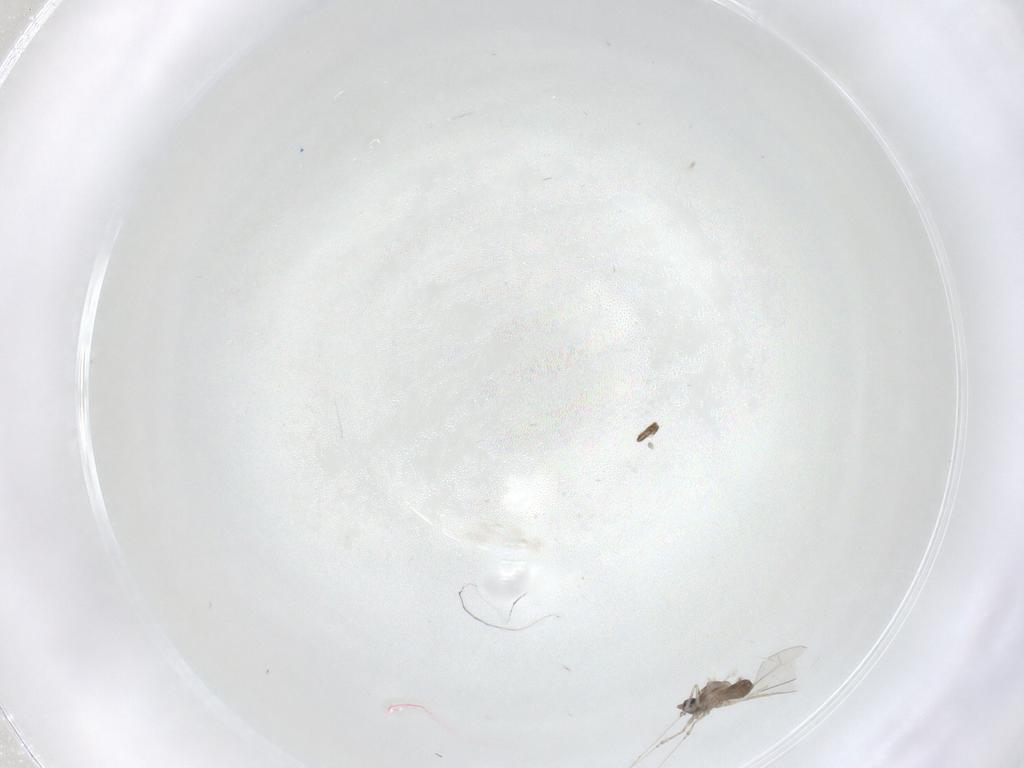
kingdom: Animalia
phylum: Arthropoda
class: Insecta
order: Diptera
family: Cecidomyiidae
